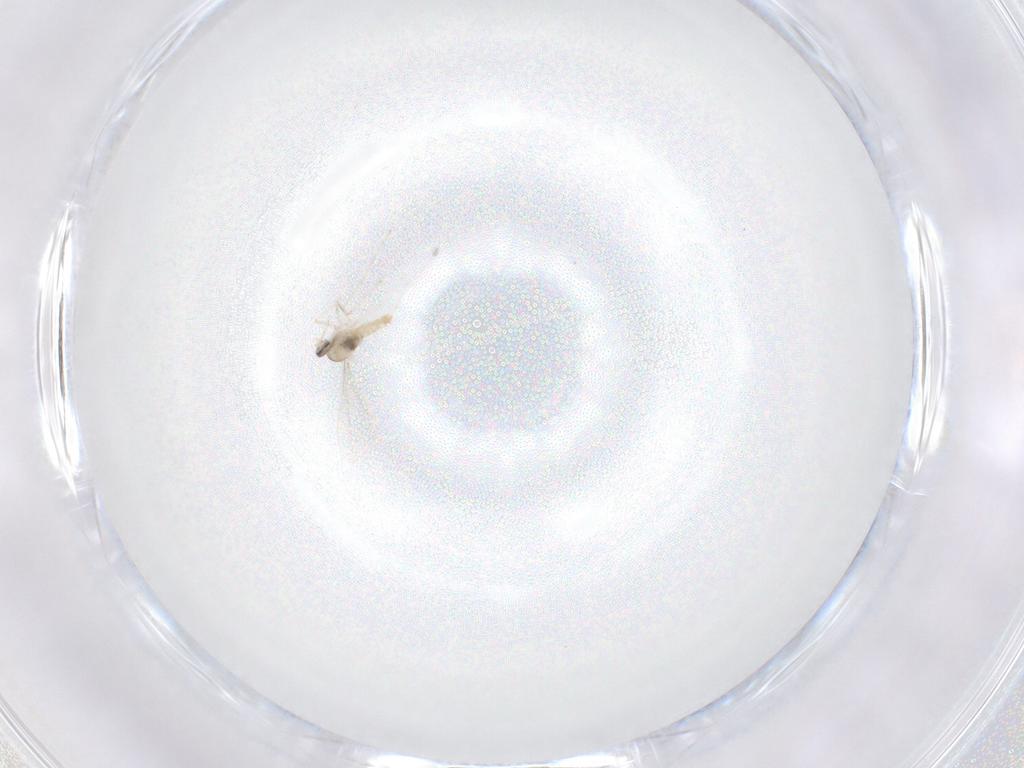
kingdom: Animalia
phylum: Arthropoda
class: Insecta
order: Diptera
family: Cecidomyiidae
